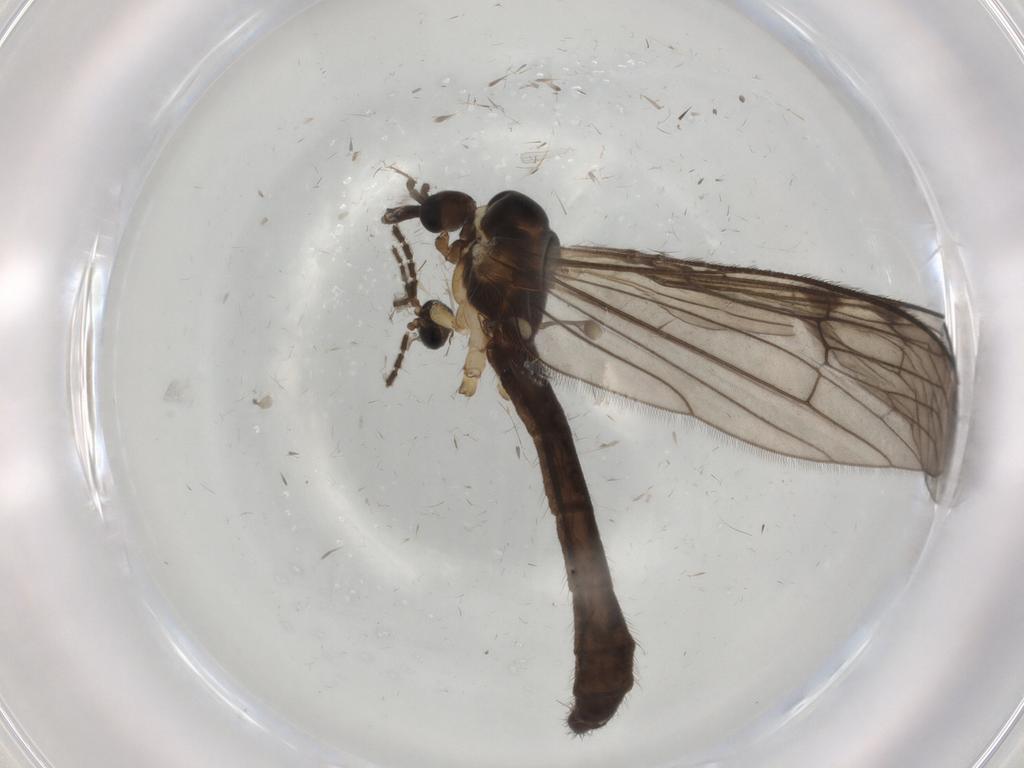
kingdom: Animalia
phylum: Arthropoda
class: Insecta
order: Diptera
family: Limoniidae
